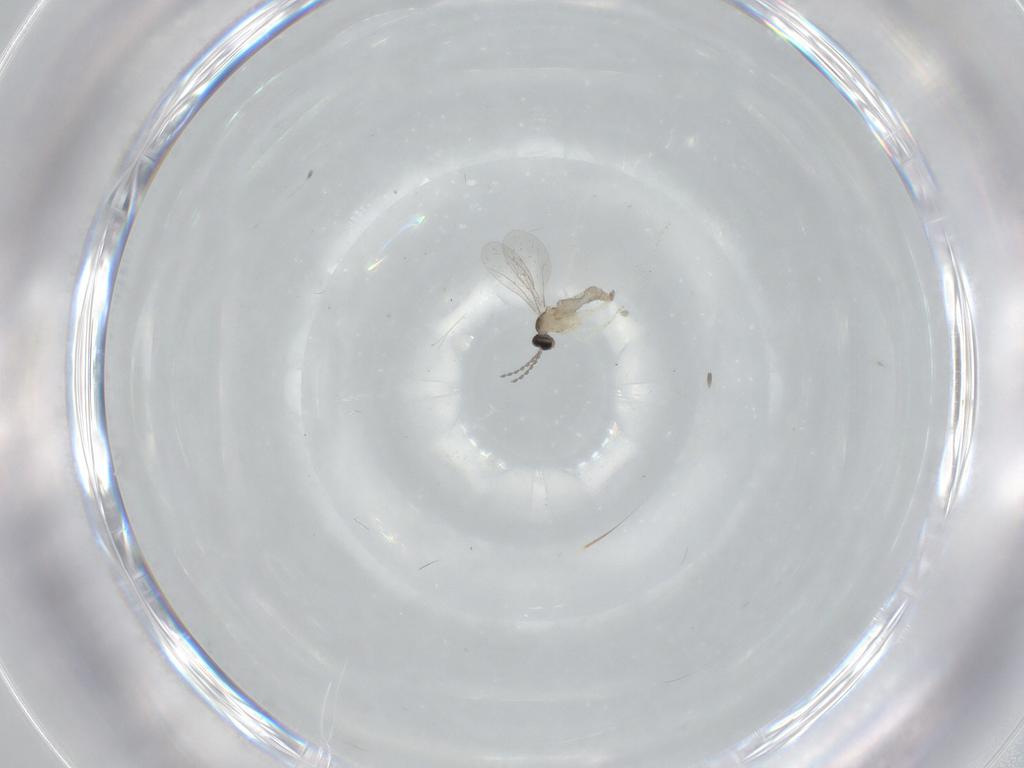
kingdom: Animalia
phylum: Arthropoda
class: Insecta
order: Diptera
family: Cecidomyiidae
